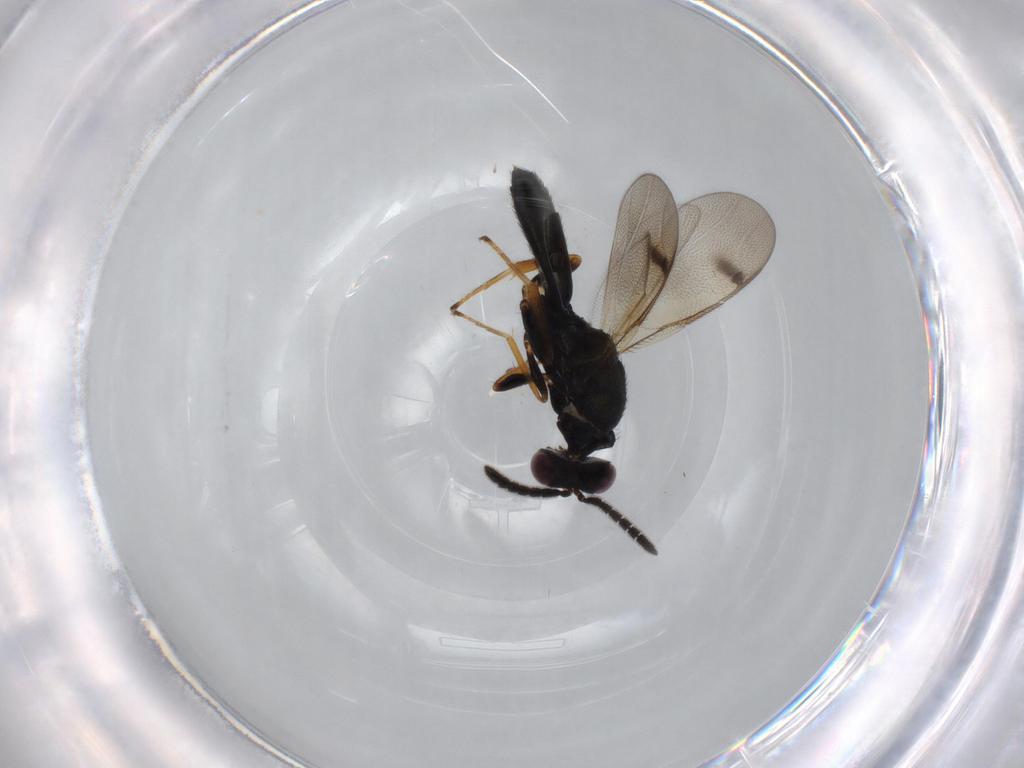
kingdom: Animalia
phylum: Arthropoda
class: Insecta
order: Hymenoptera
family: Pteromalidae
